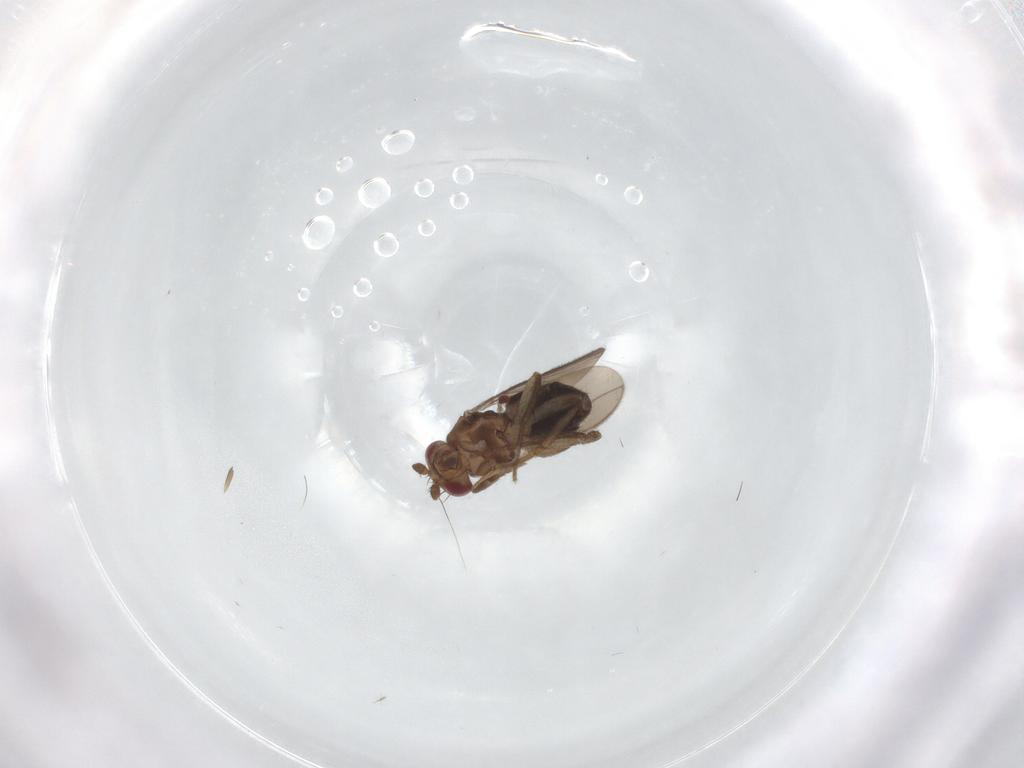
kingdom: Animalia
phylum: Arthropoda
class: Insecta
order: Diptera
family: Sphaeroceridae
